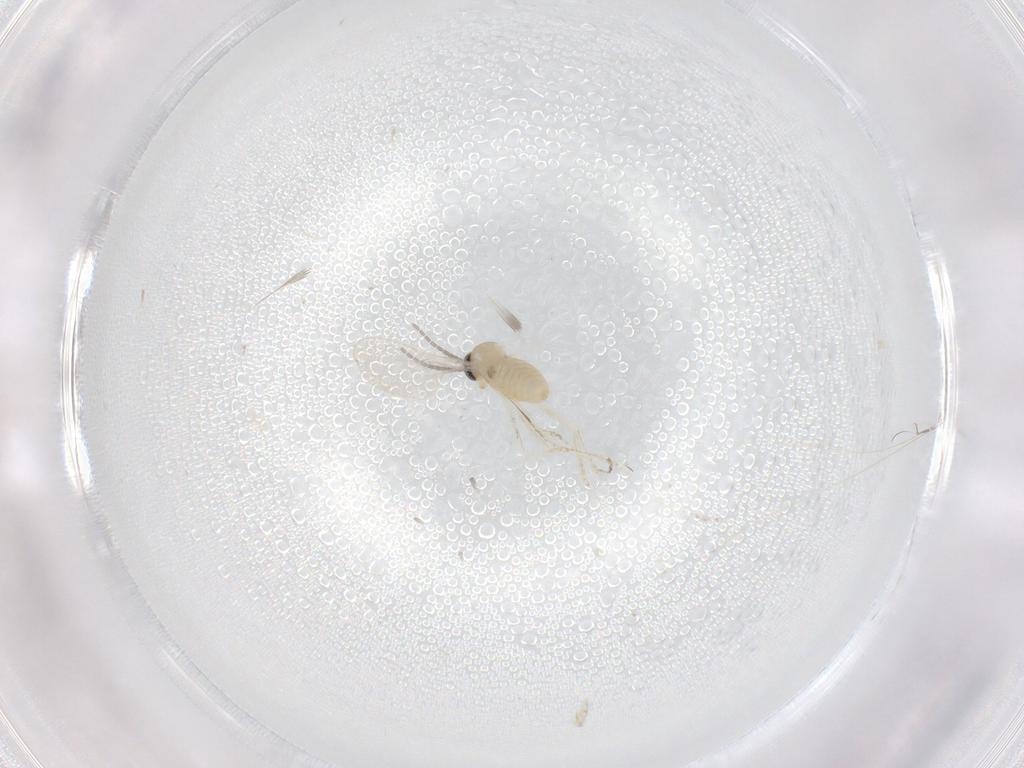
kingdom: Animalia
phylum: Arthropoda
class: Insecta
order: Diptera
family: Cecidomyiidae
